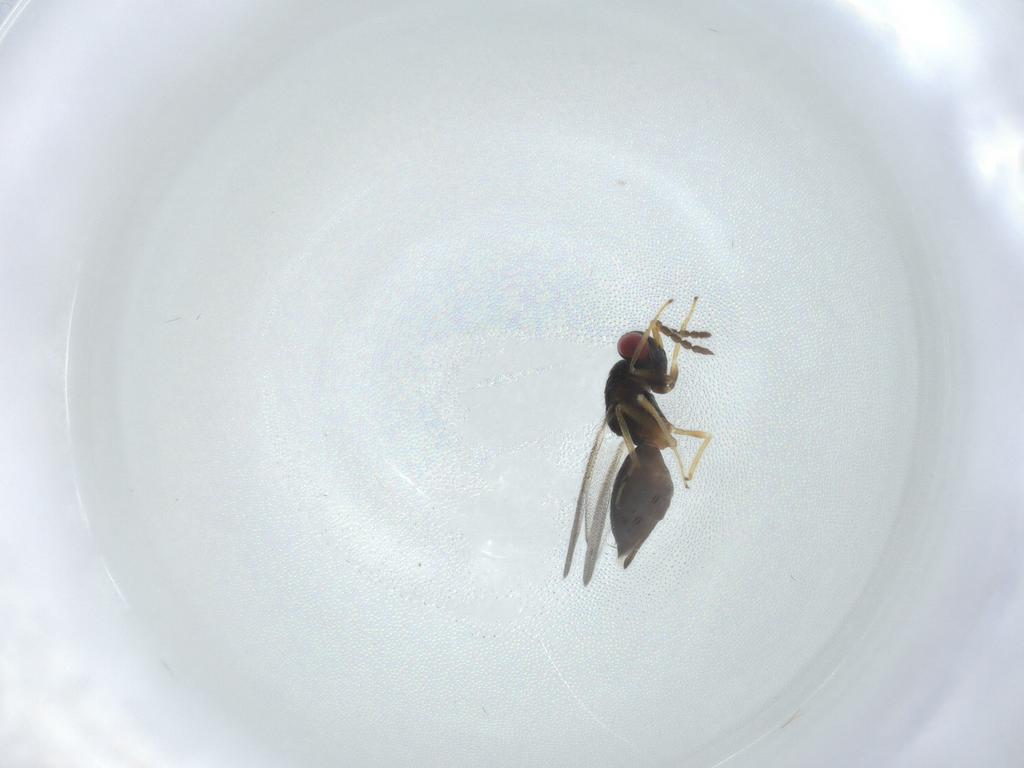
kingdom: Animalia
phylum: Arthropoda
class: Insecta
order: Hymenoptera
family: Eulophidae
